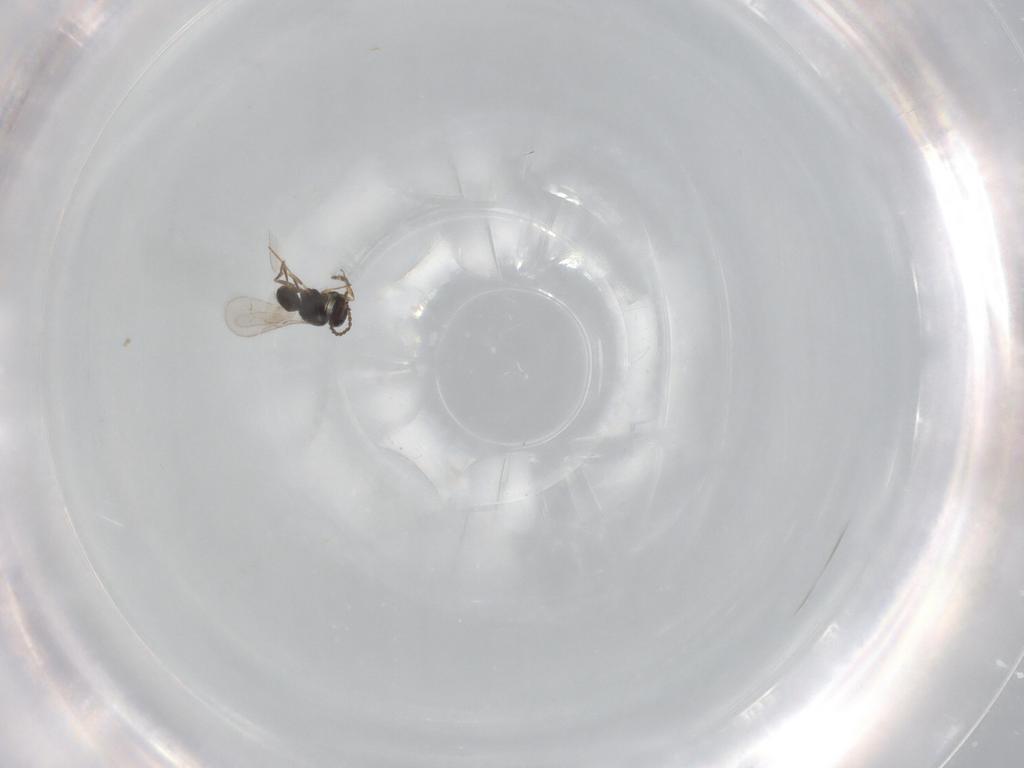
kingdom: Animalia
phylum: Arthropoda
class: Insecta
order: Hymenoptera
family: Scelionidae
